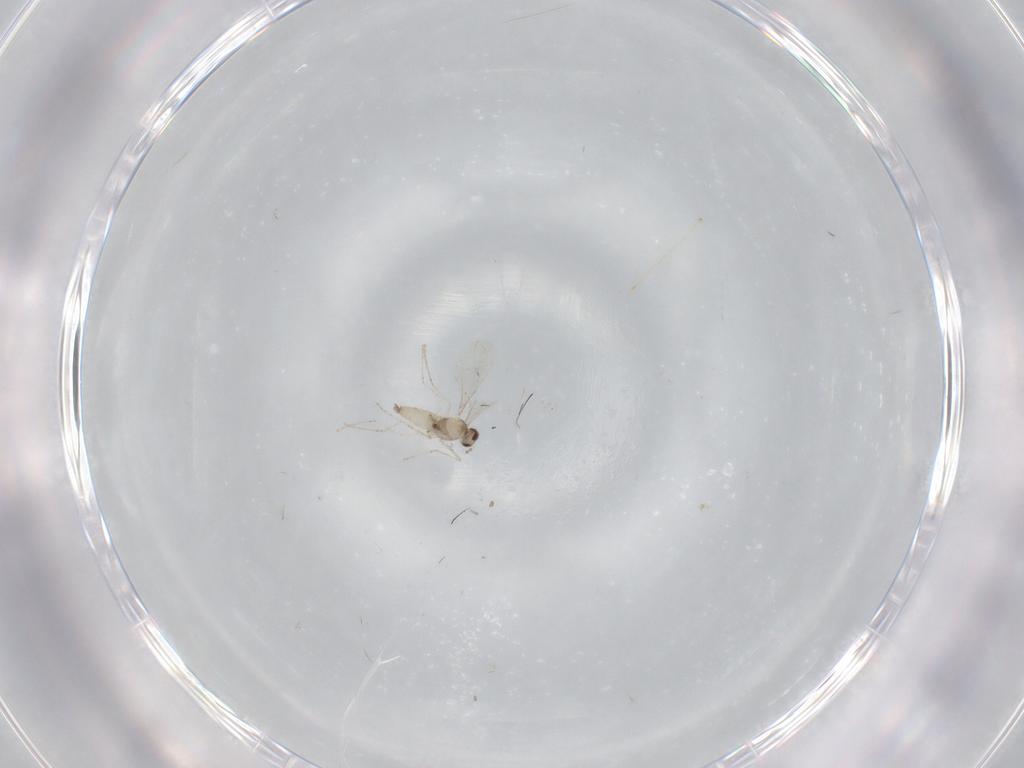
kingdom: Animalia
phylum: Arthropoda
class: Insecta
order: Diptera
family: Cecidomyiidae
